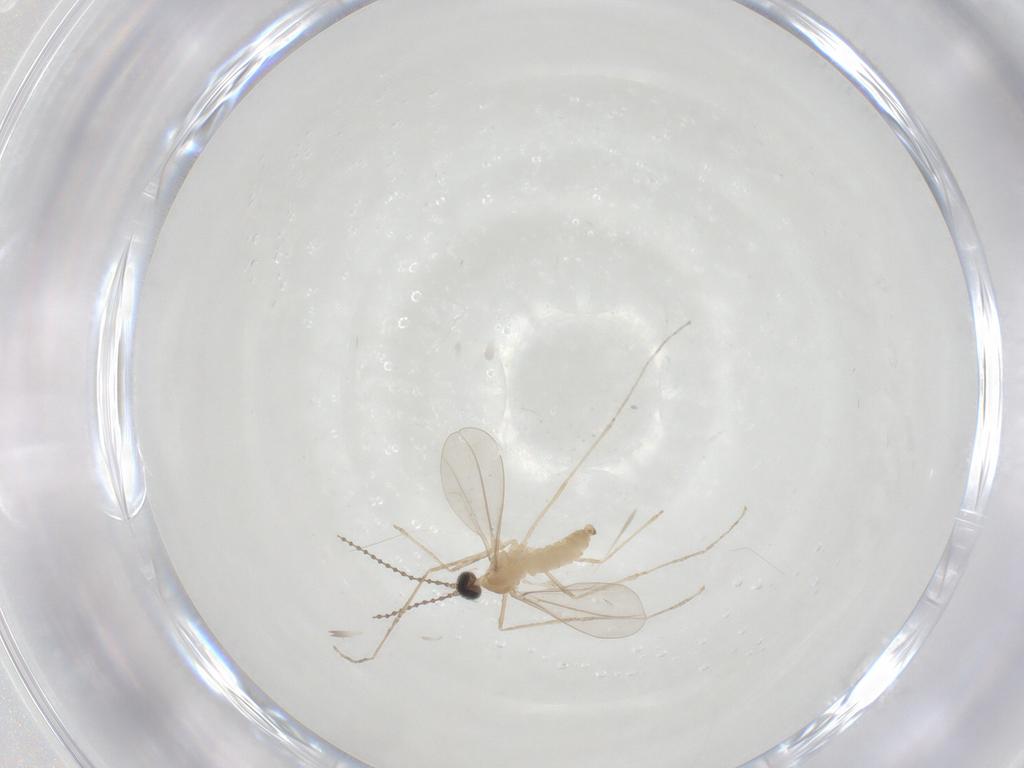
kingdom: Animalia
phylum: Arthropoda
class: Insecta
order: Diptera
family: Cecidomyiidae
